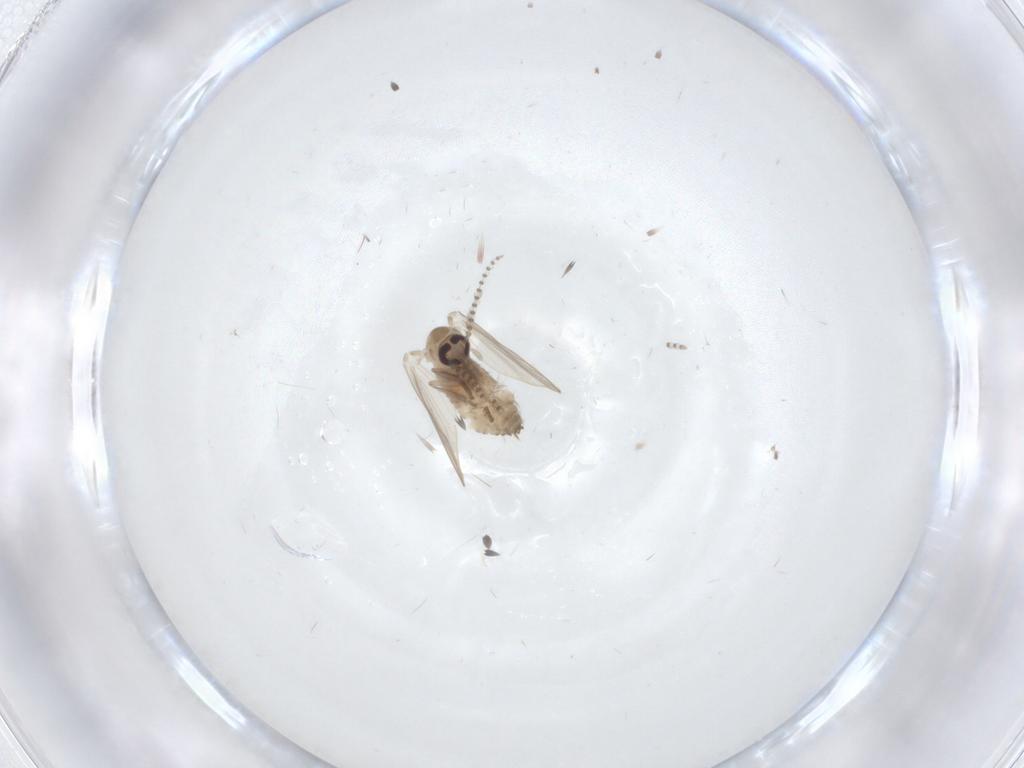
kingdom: Animalia
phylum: Arthropoda
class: Insecta
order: Diptera
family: Psychodidae
